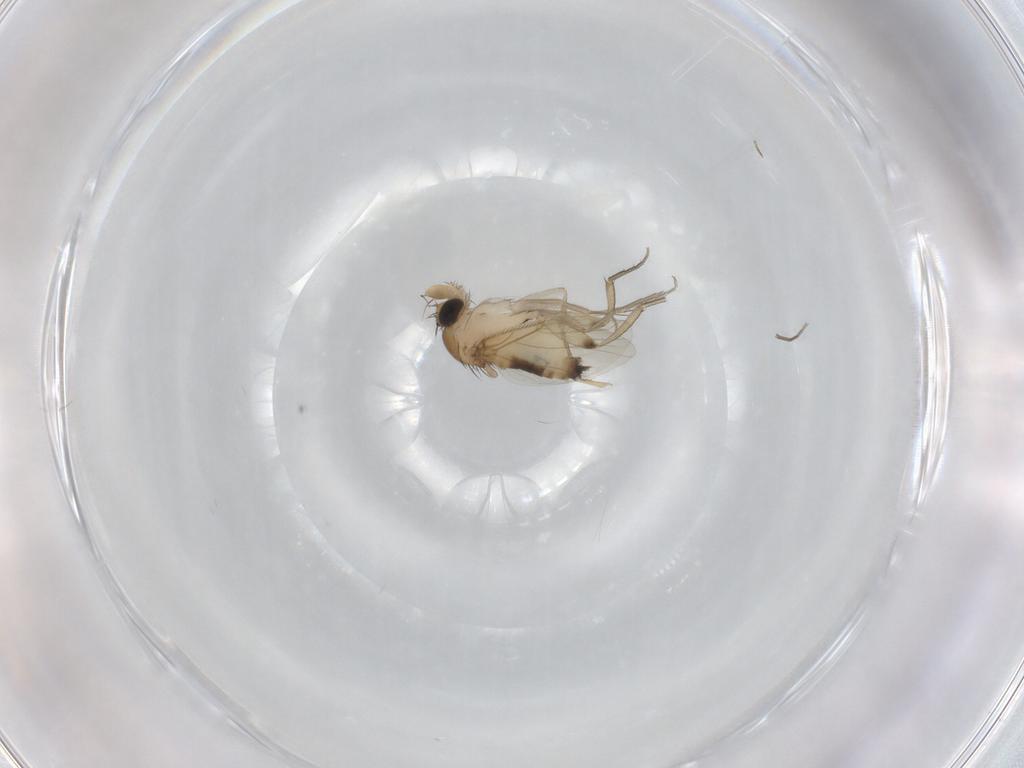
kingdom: Animalia
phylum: Arthropoda
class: Insecta
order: Diptera
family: Phoridae
